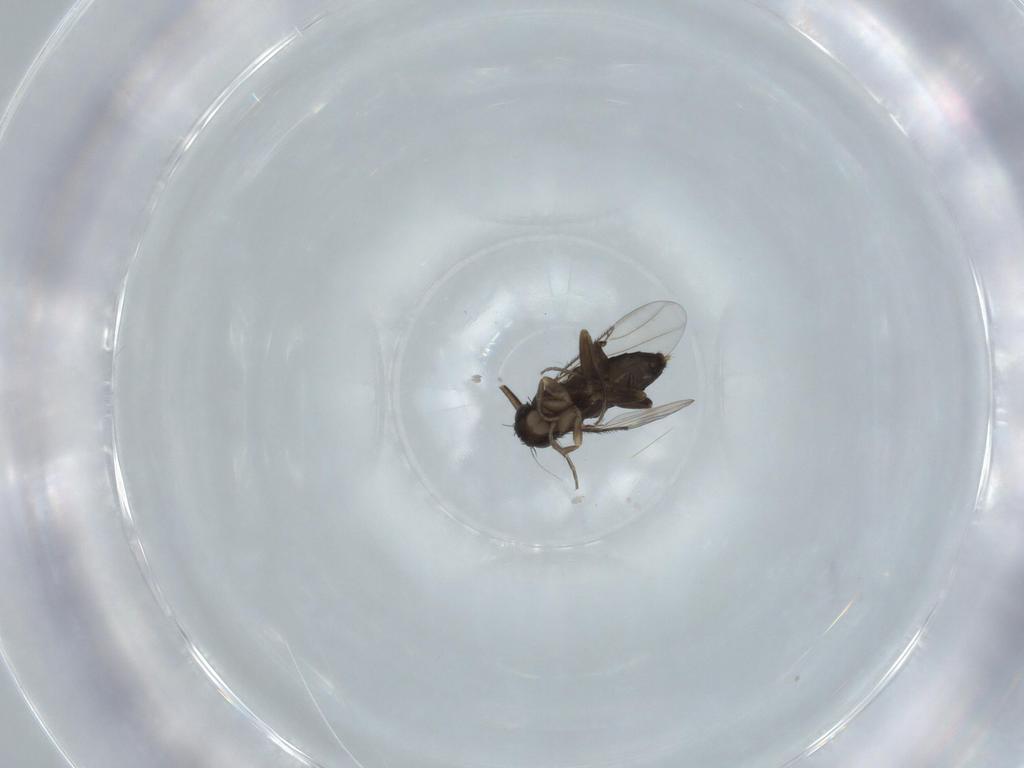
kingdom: Animalia
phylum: Arthropoda
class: Insecta
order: Diptera
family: Phoridae
